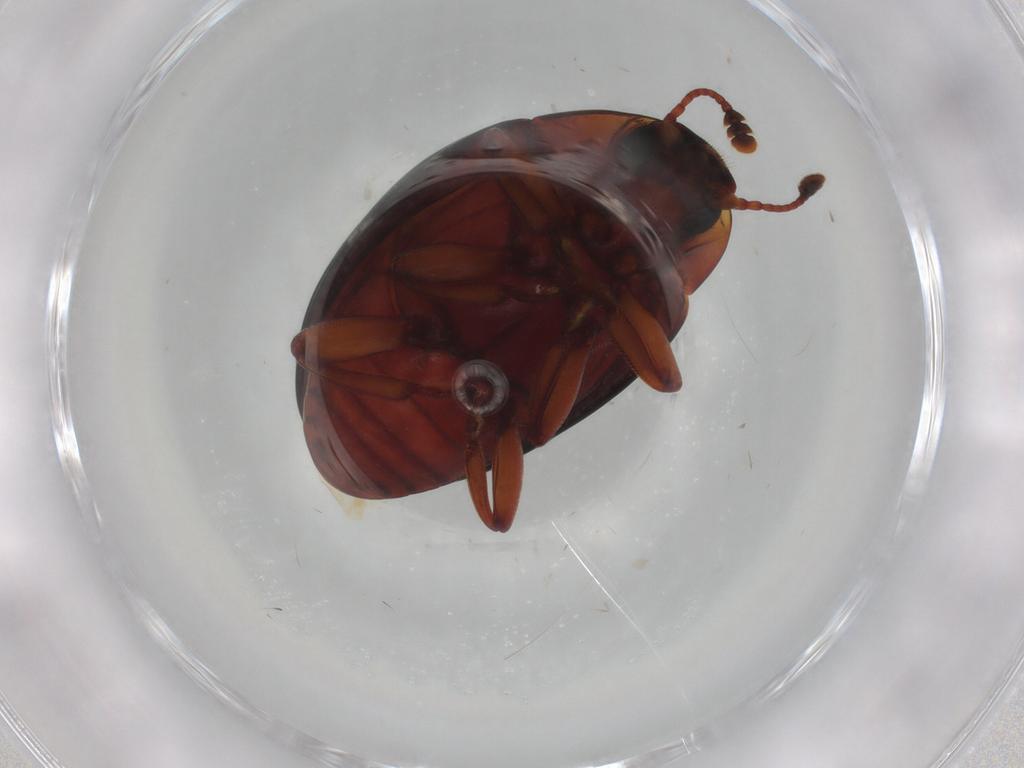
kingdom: Animalia
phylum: Arthropoda
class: Insecta
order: Coleoptera
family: Zopheridae
